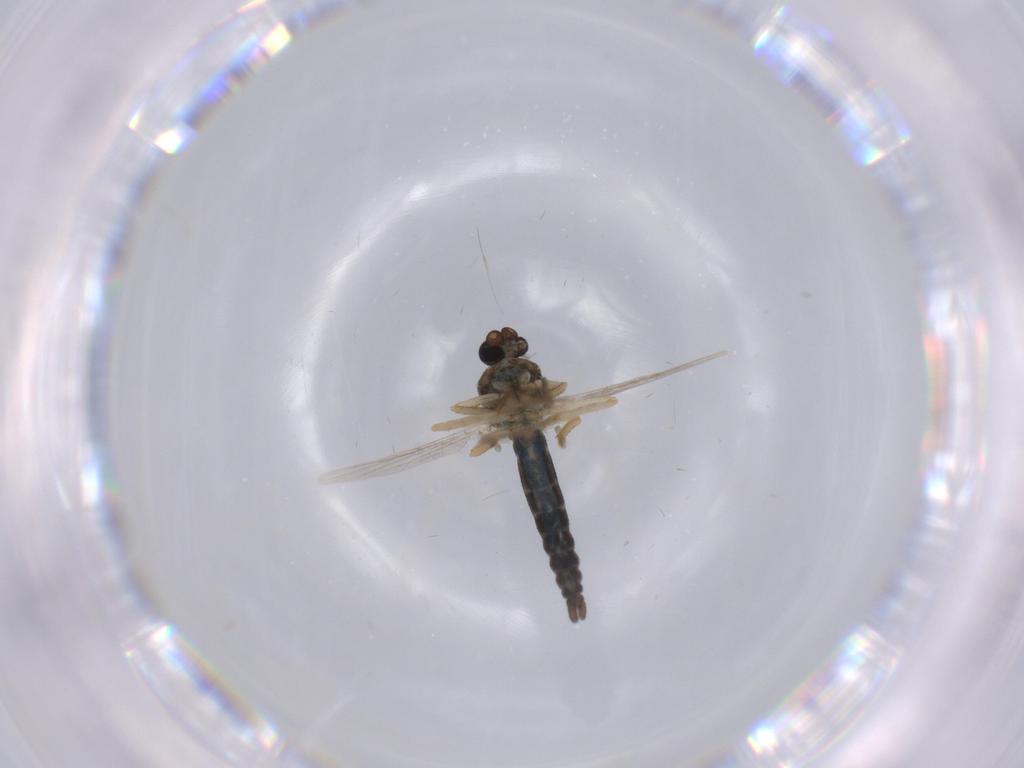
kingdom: Animalia
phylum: Arthropoda
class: Insecta
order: Diptera
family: Ceratopogonidae
